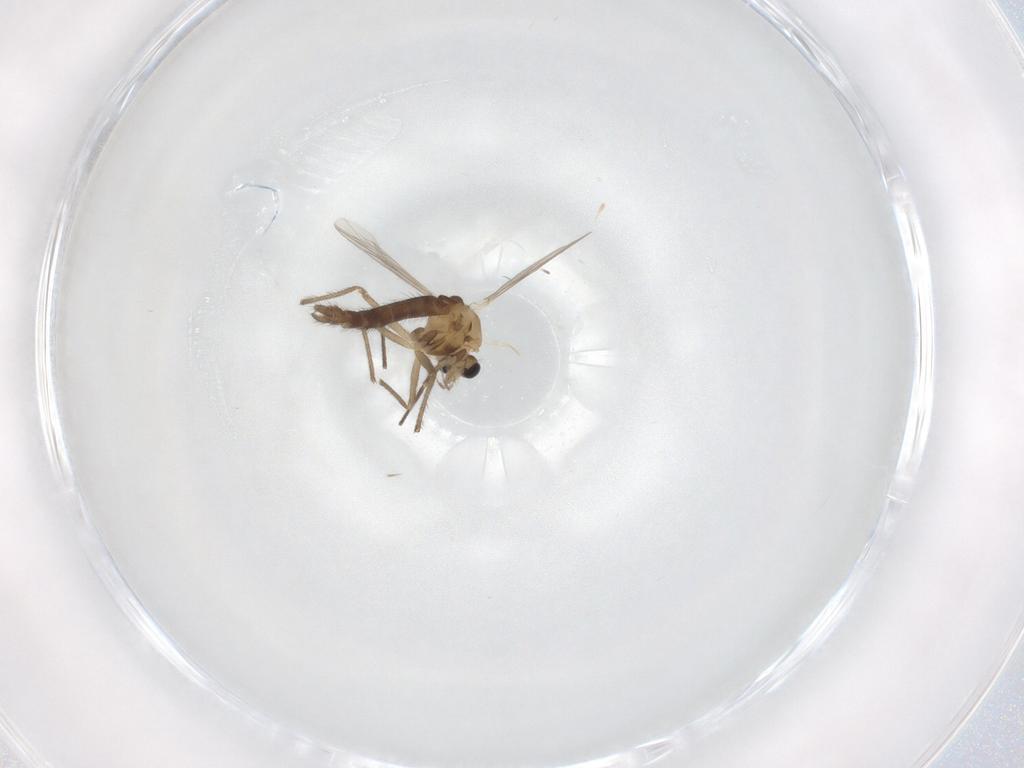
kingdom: Animalia
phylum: Arthropoda
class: Insecta
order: Diptera
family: Chironomidae
